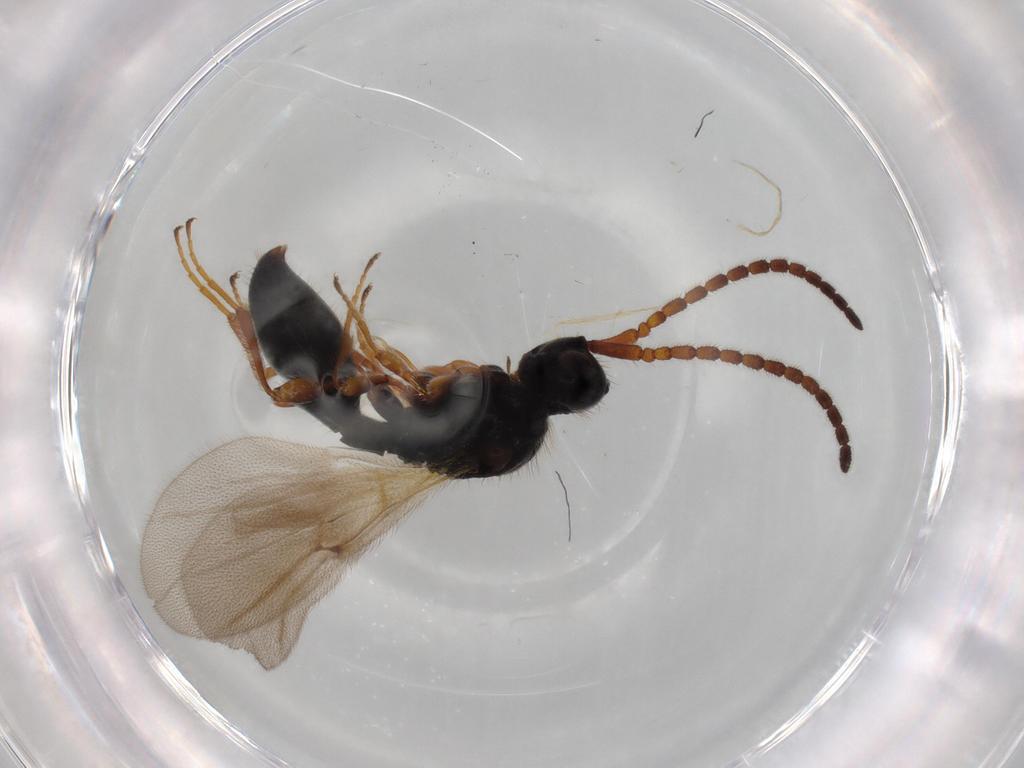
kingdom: Animalia
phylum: Arthropoda
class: Insecta
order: Hymenoptera
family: Diapriidae
